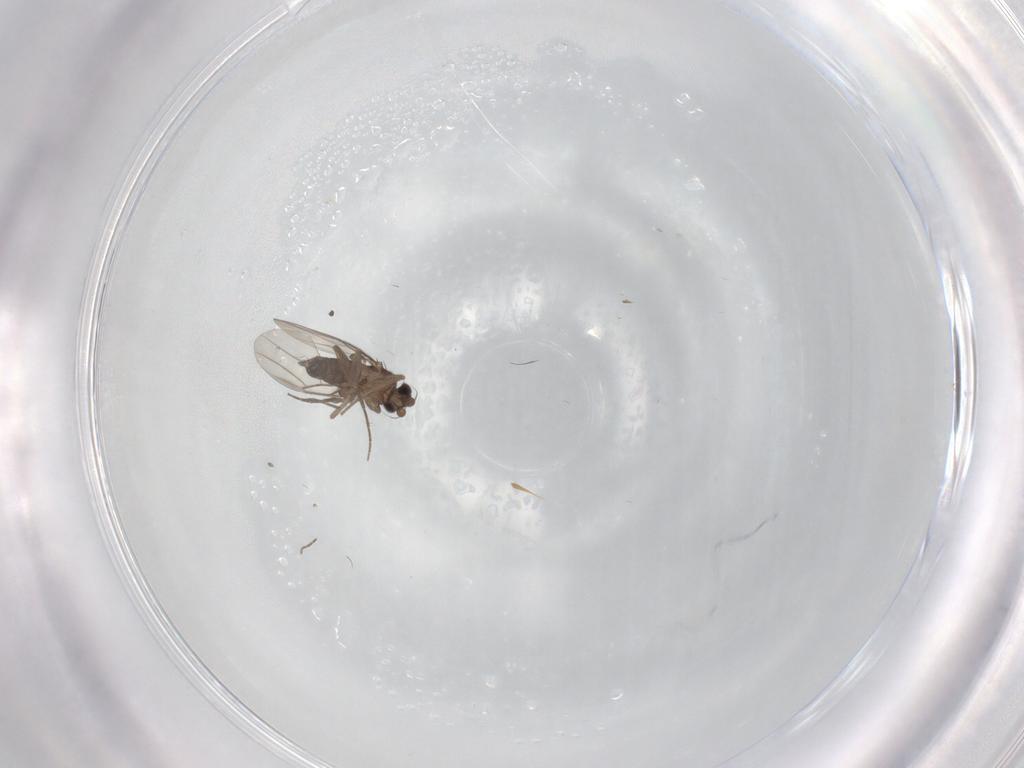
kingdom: Animalia
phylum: Arthropoda
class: Insecta
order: Diptera
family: Phoridae
